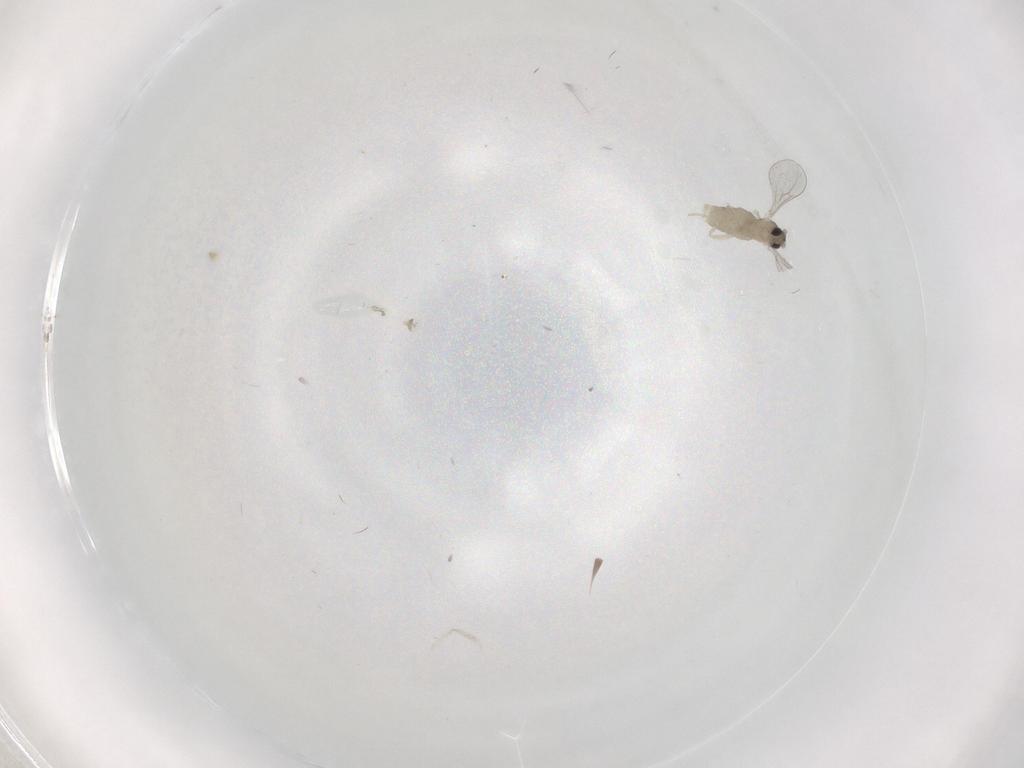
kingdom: Animalia
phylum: Arthropoda
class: Insecta
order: Diptera
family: Cecidomyiidae
